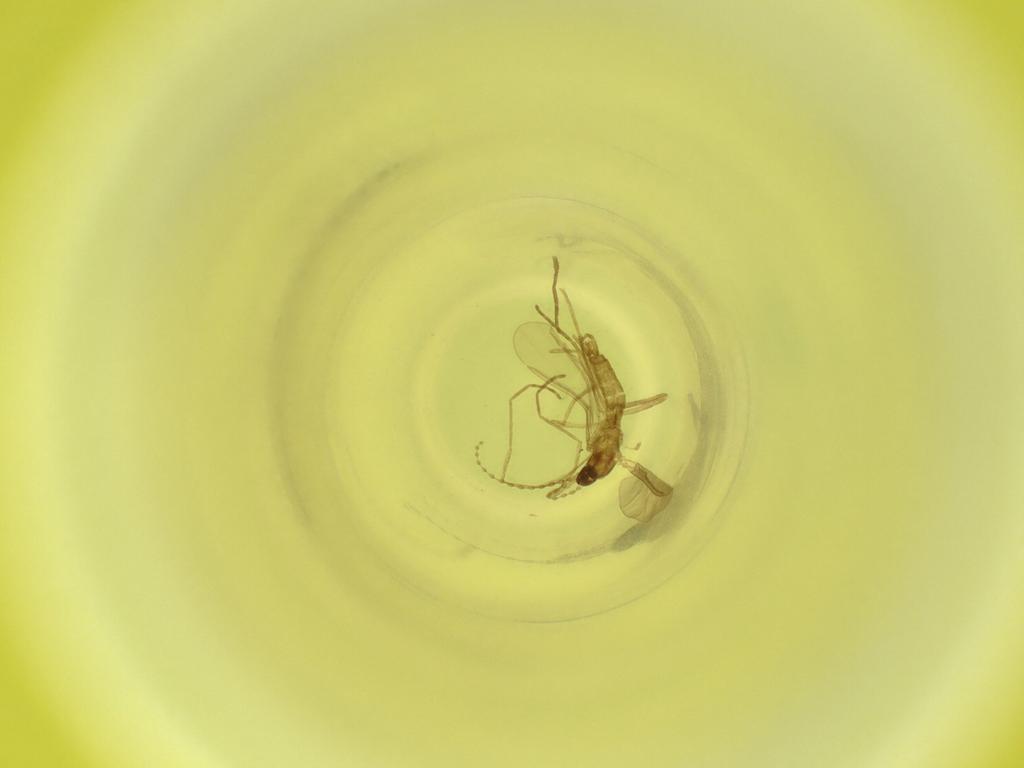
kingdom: Animalia
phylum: Arthropoda
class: Insecta
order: Diptera
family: Cecidomyiidae
